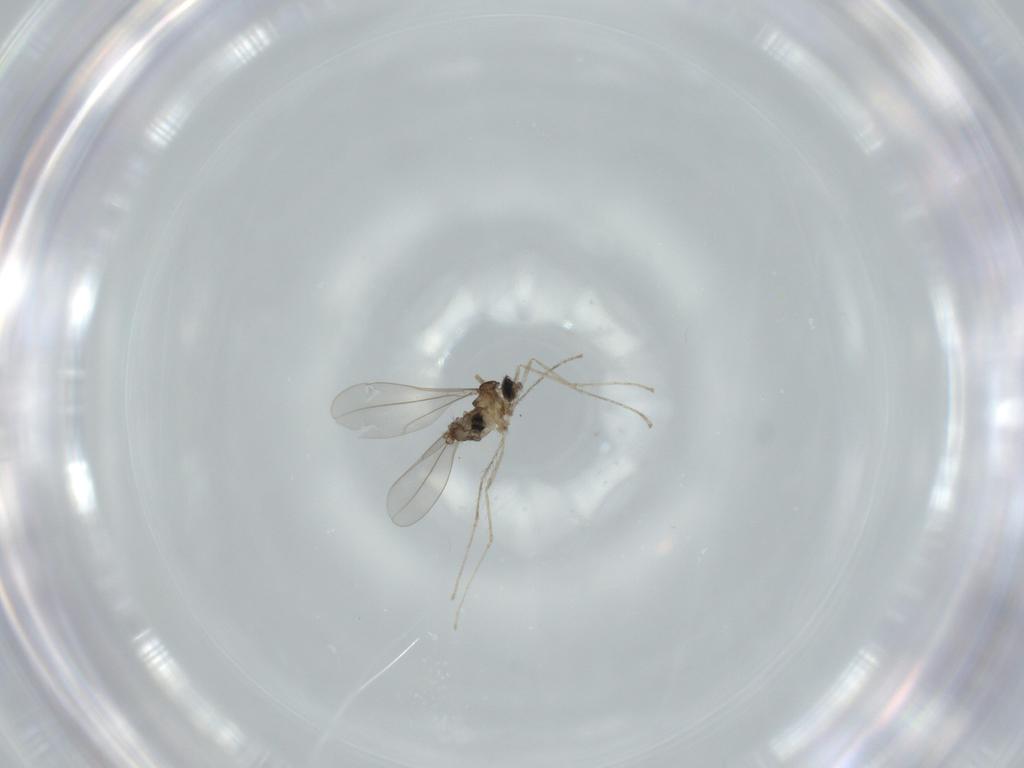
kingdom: Animalia
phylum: Arthropoda
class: Insecta
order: Diptera
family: Cecidomyiidae
